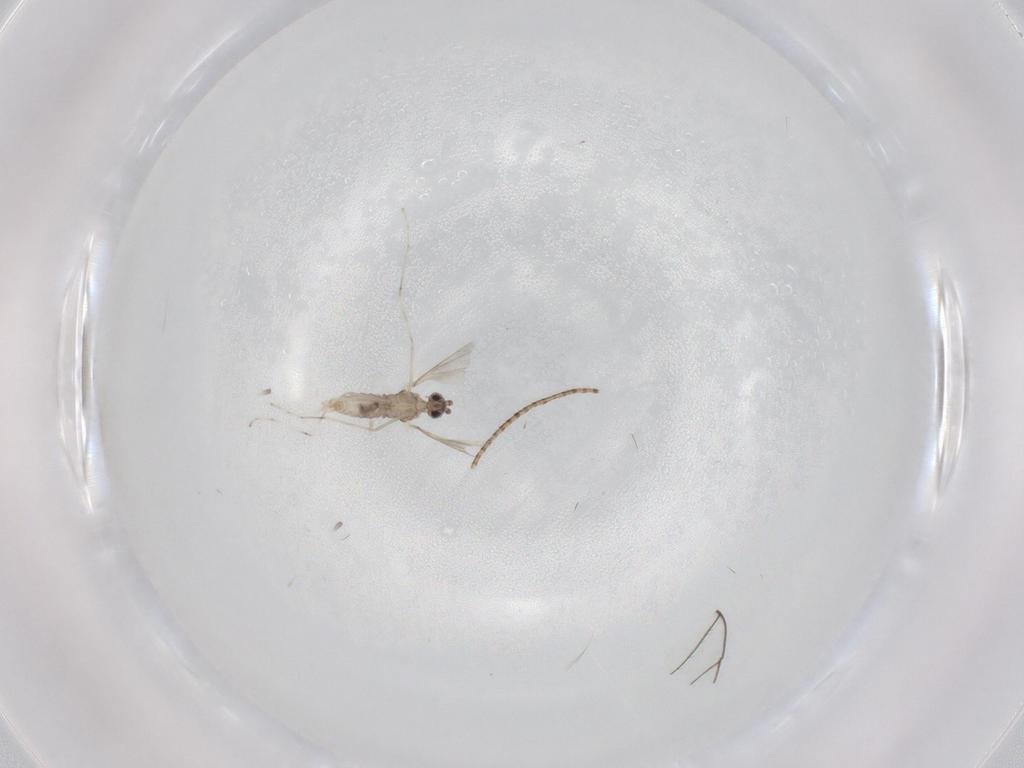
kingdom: Animalia
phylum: Arthropoda
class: Insecta
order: Diptera
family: Cecidomyiidae
